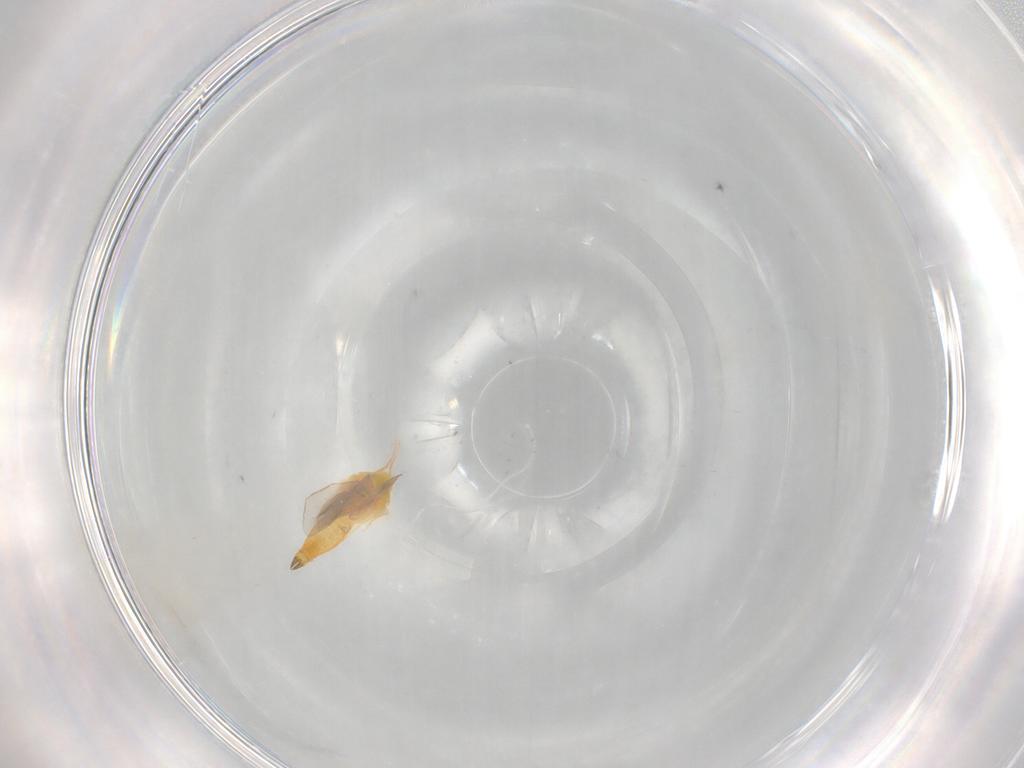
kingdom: Animalia
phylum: Arthropoda
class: Insecta
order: Hemiptera
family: Aleyrodidae
